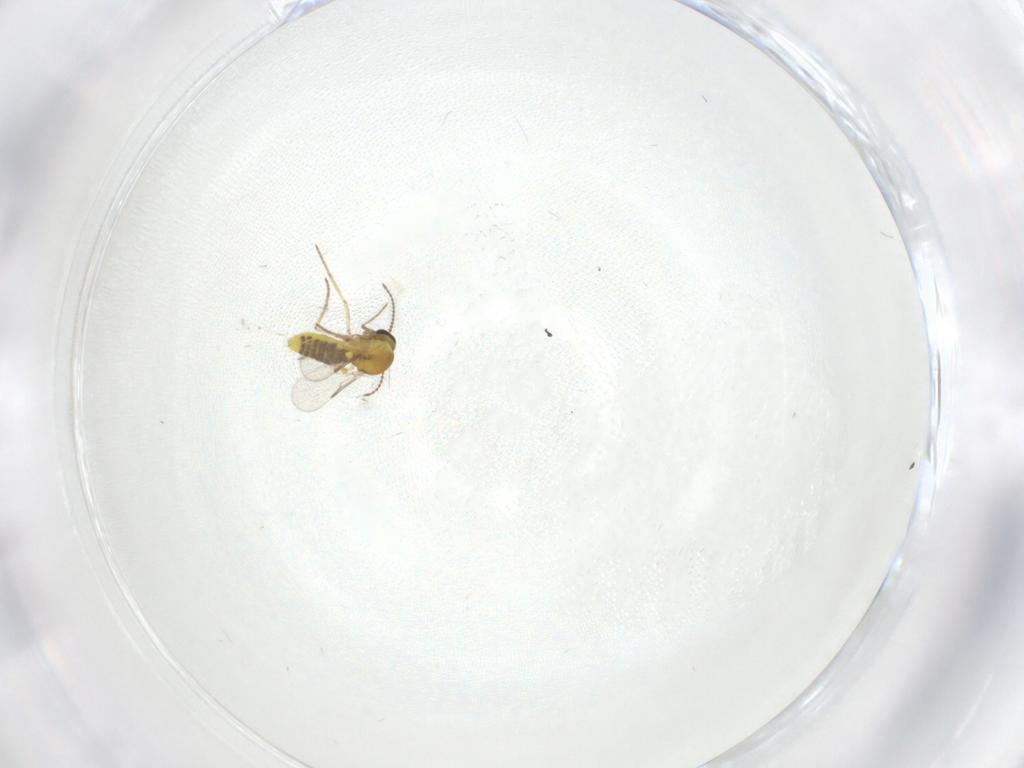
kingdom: Animalia
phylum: Arthropoda
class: Insecta
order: Diptera
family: Ceratopogonidae
